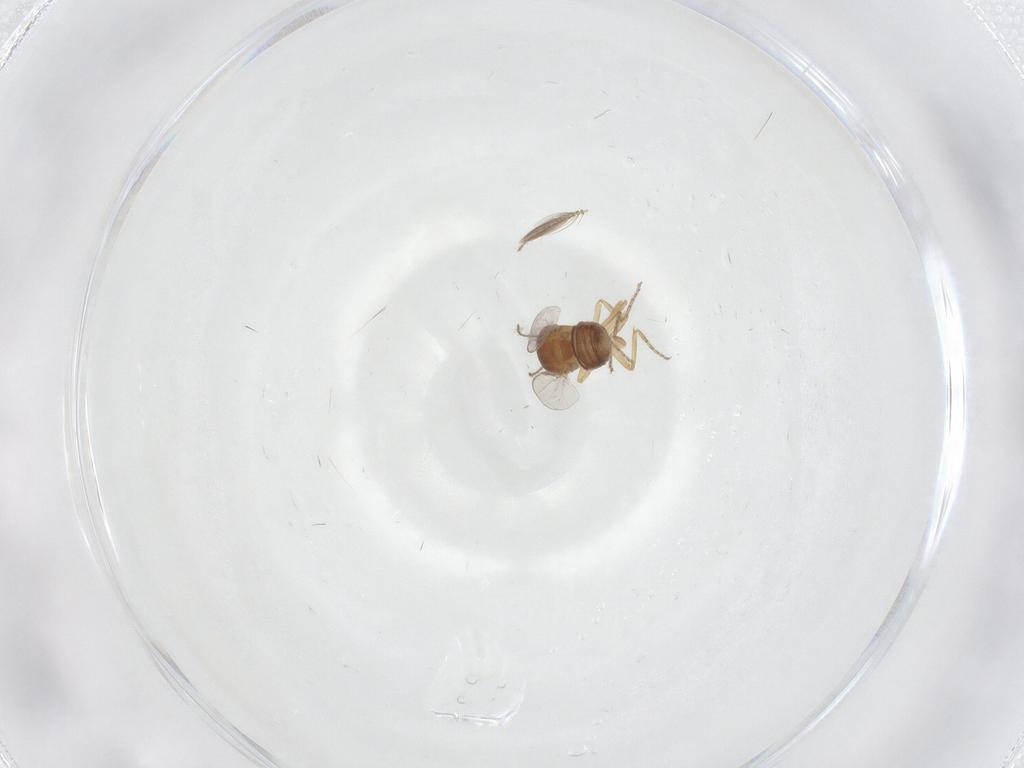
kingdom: Animalia
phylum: Arthropoda
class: Insecta
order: Diptera
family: Ceratopogonidae
